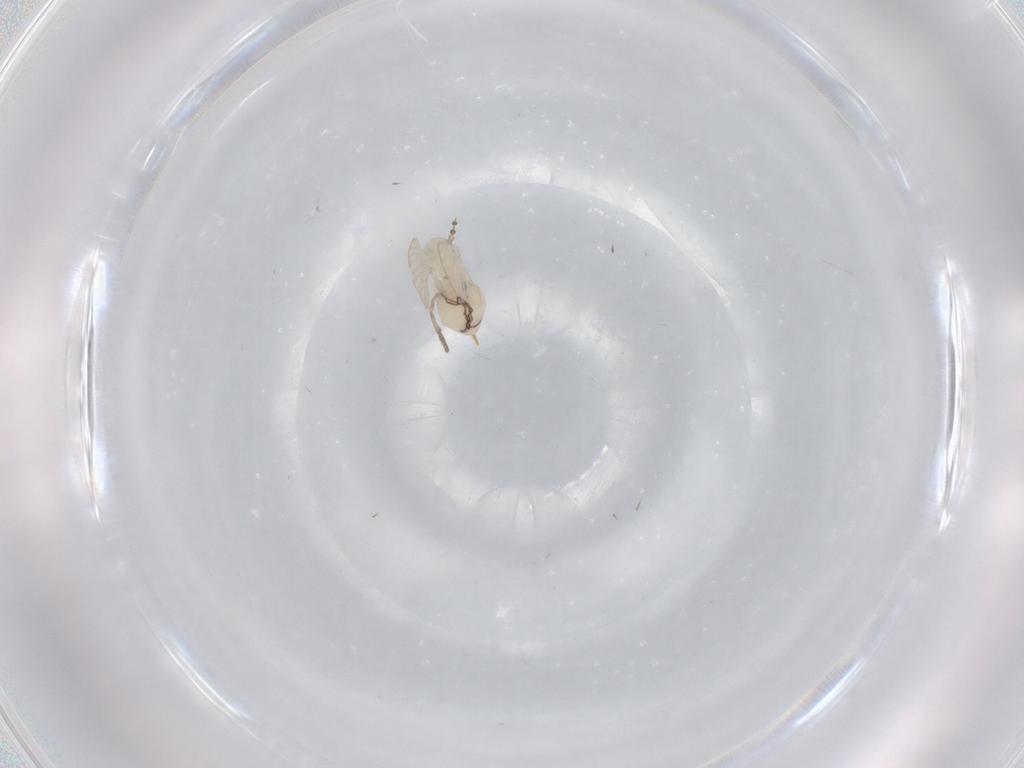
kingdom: Animalia
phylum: Arthropoda
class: Insecta
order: Diptera
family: Psychodidae
